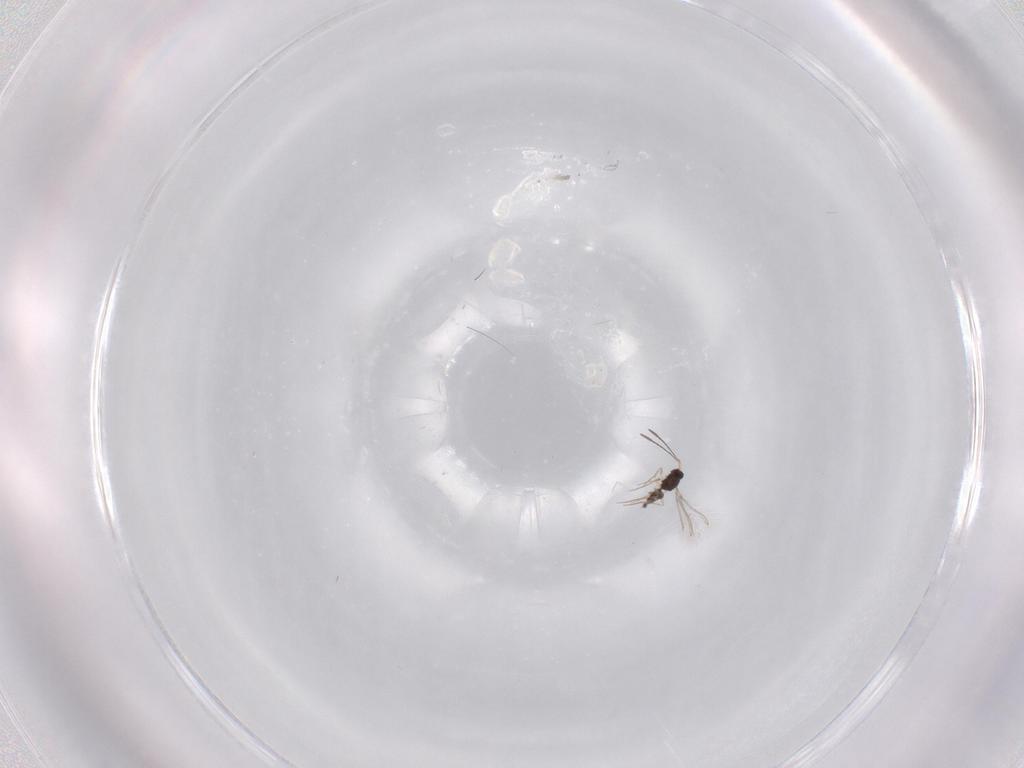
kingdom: Animalia
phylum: Arthropoda
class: Insecta
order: Hymenoptera
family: Mymaridae
